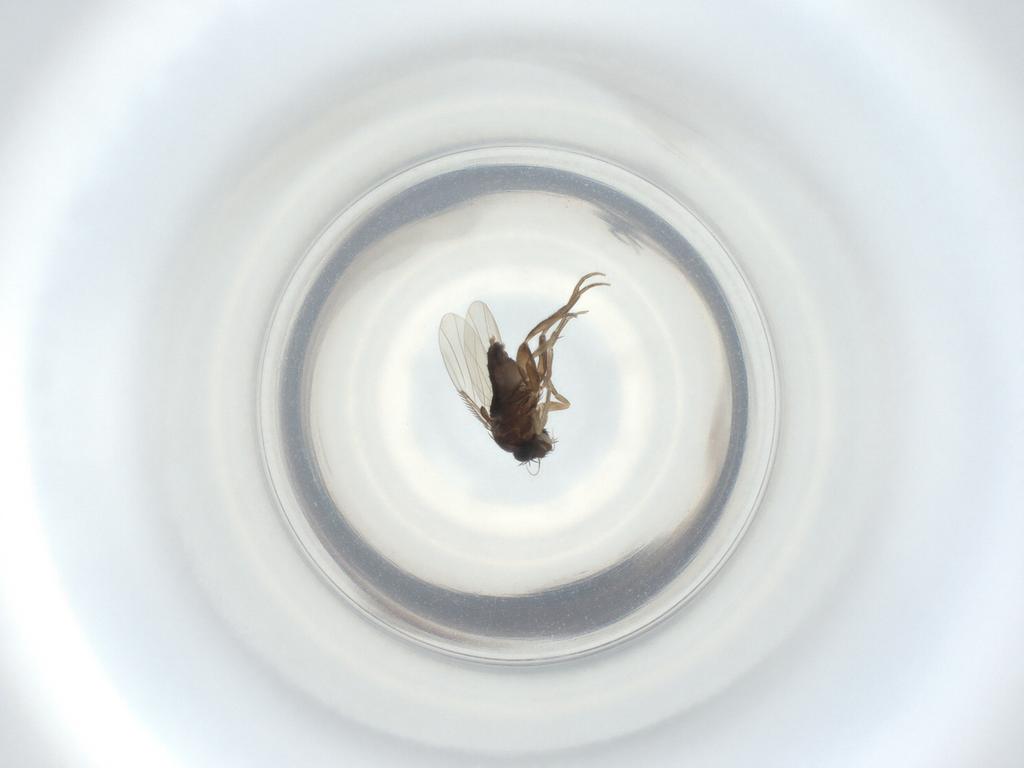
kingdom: Animalia
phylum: Arthropoda
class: Insecta
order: Diptera
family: Phoridae
